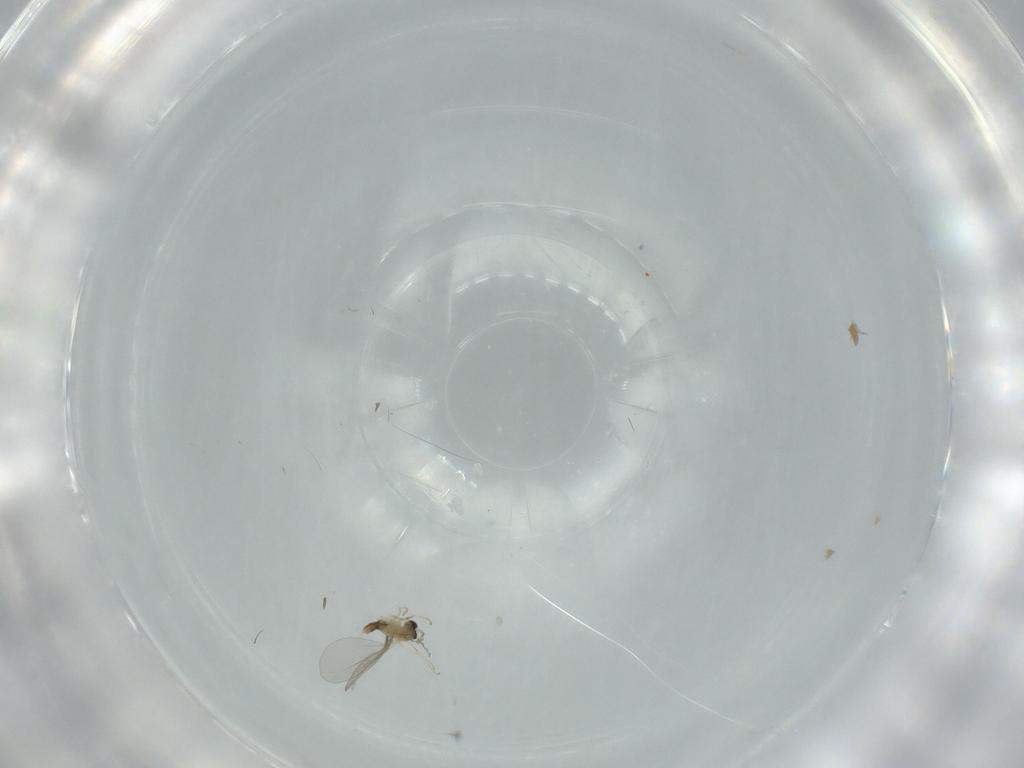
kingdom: Animalia
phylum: Arthropoda
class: Insecta
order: Diptera
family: Cecidomyiidae
